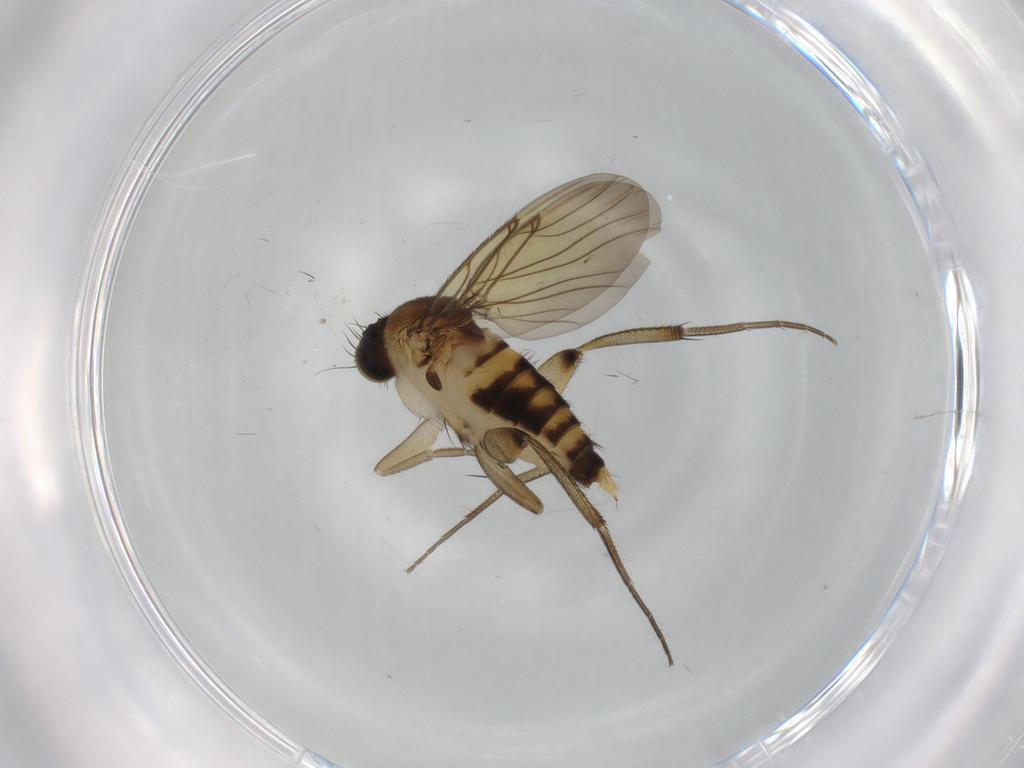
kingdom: Animalia
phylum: Arthropoda
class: Insecta
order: Diptera
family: Phoridae
